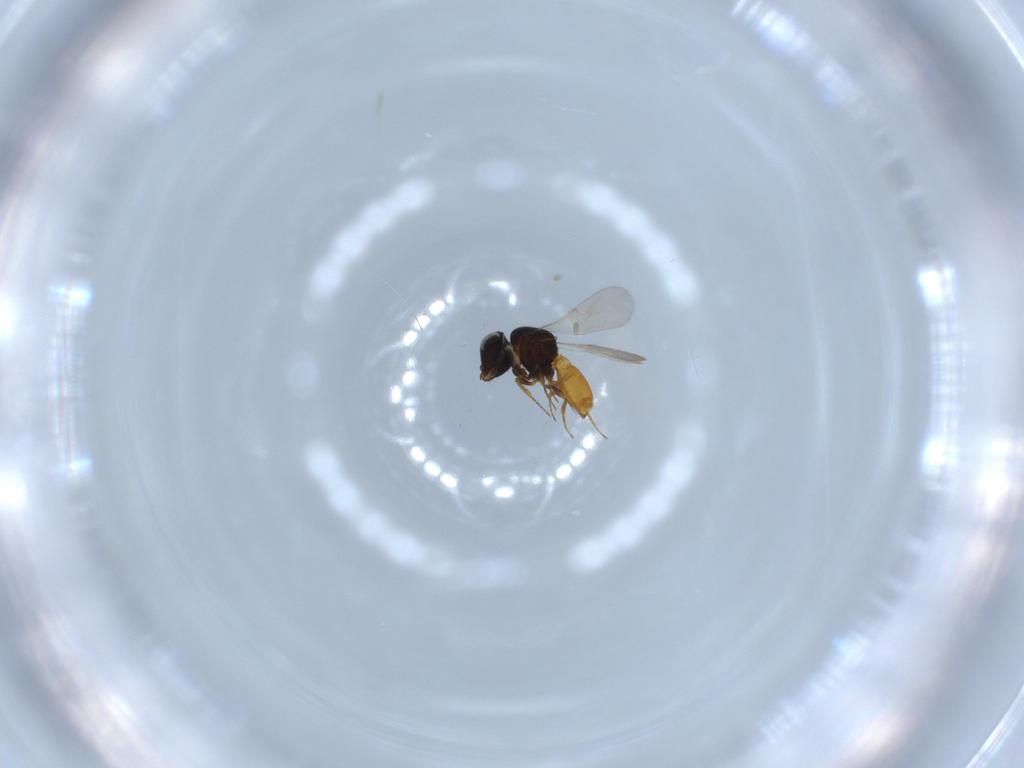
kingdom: Animalia
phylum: Arthropoda
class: Insecta
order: Hymenoptera
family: Scelionidae
